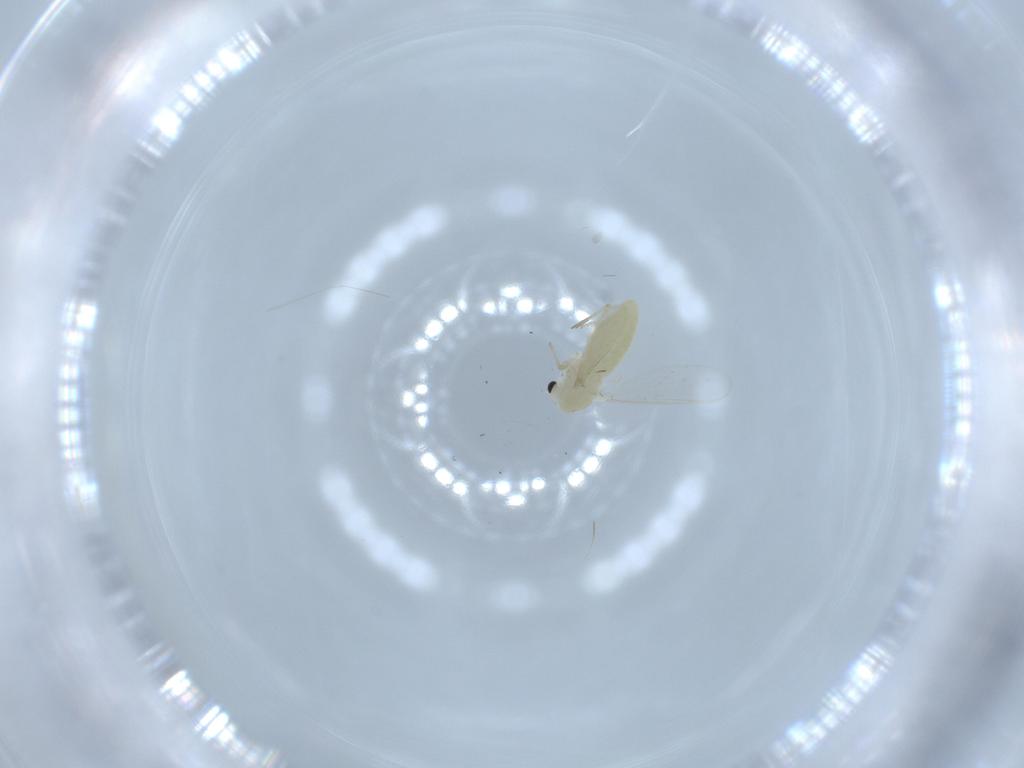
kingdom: Animalia
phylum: Arthropoda
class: Insecta
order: Diptera
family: Chironomidae
